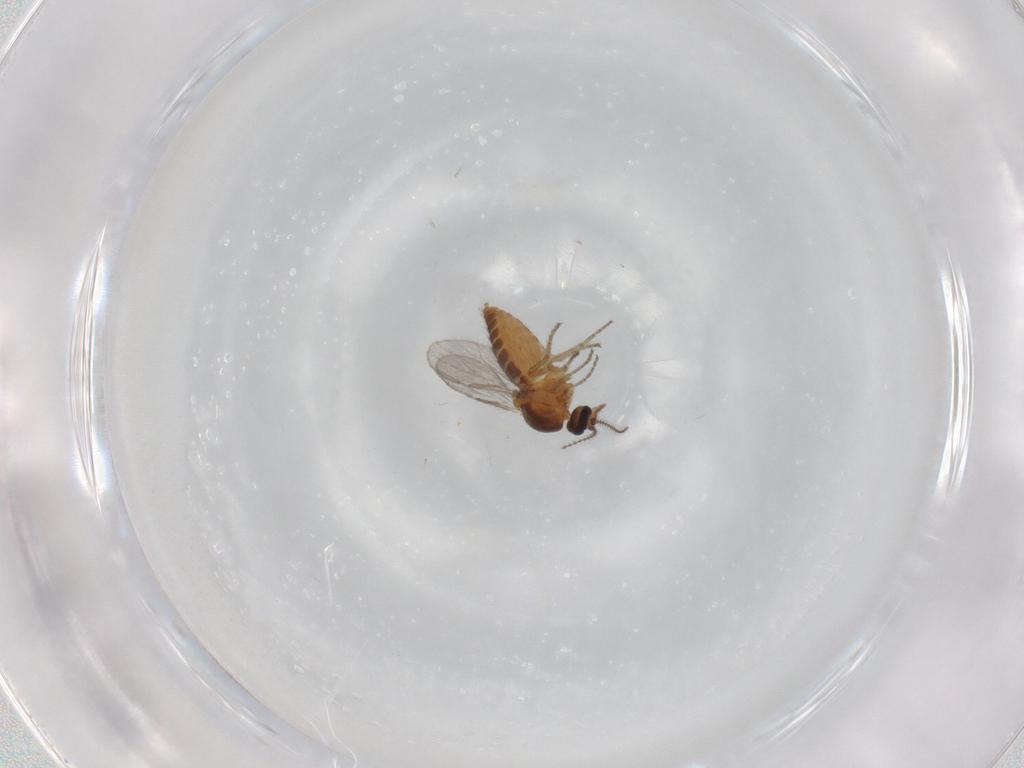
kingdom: Animalia
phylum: Arthropoda
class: Insecta
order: Diptera
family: Ceratopogonidae
